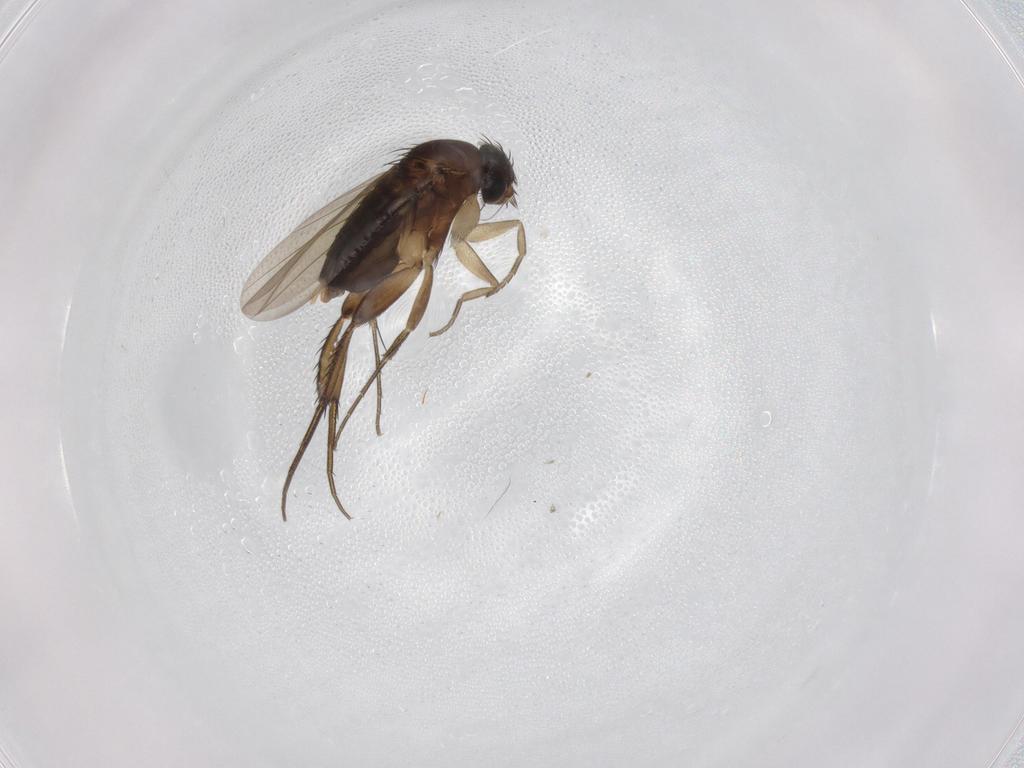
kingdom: Animalia
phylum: Arthropoda
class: Insecta
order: Diptera
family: Phoridae
